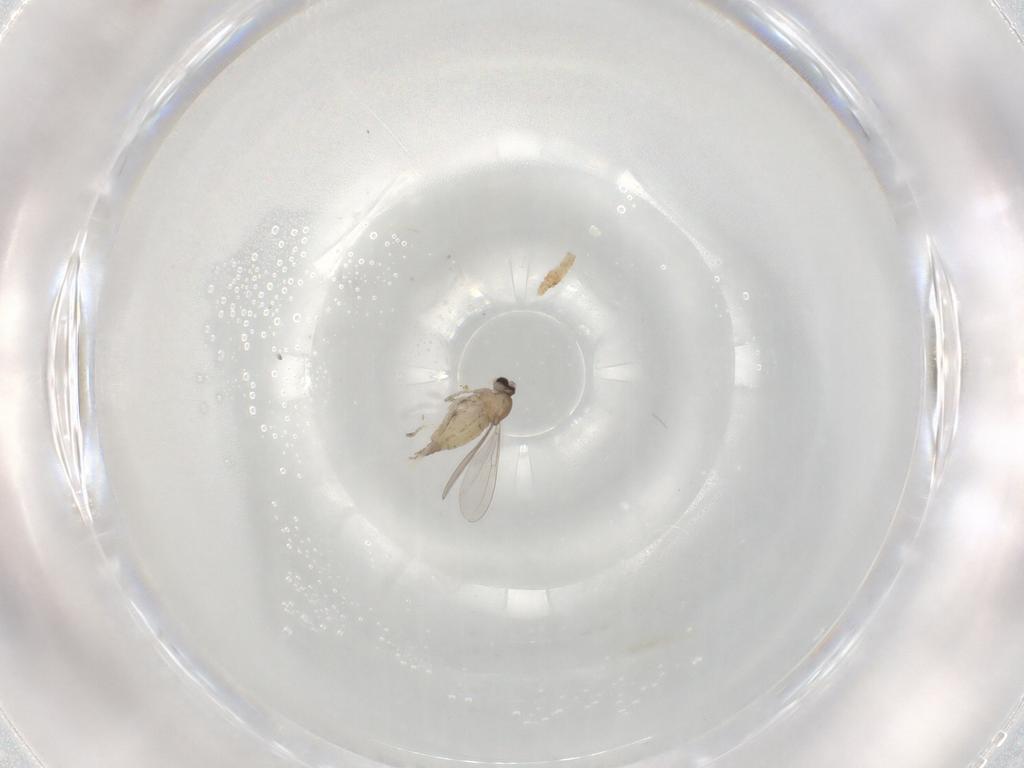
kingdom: Animalia
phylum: Arthropoda
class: Insecta
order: Diptera
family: Cecidomyiidae
